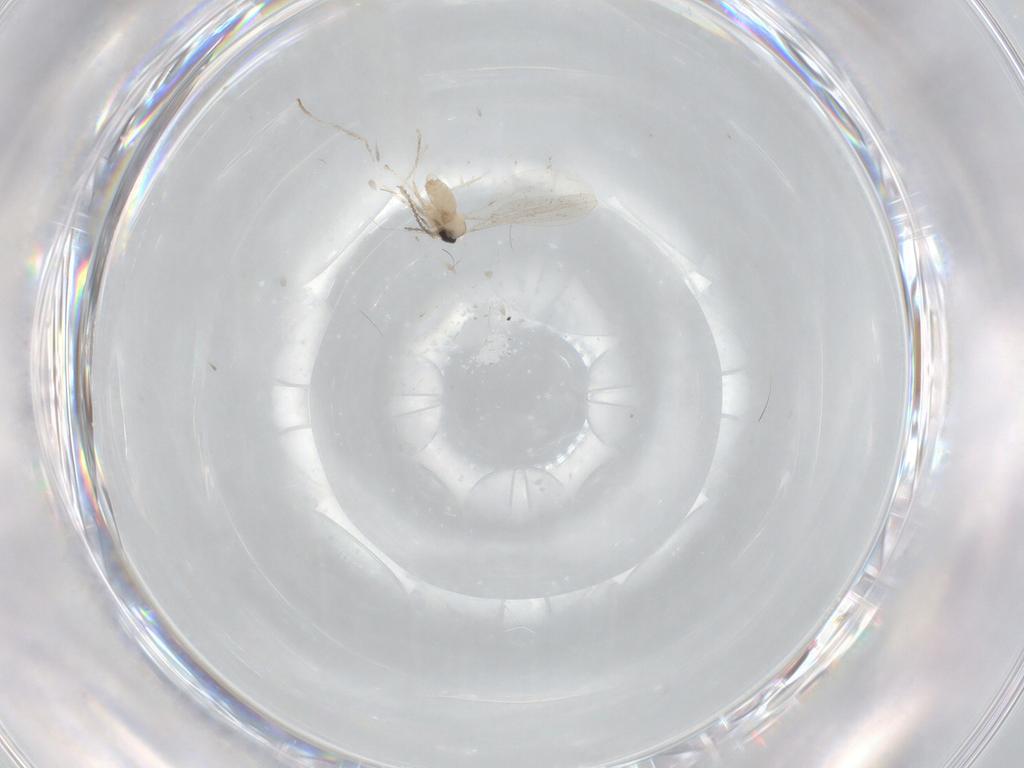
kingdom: Animalia
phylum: Arthropoda
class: Insecta
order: Diptera
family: Cecidomyiidae
